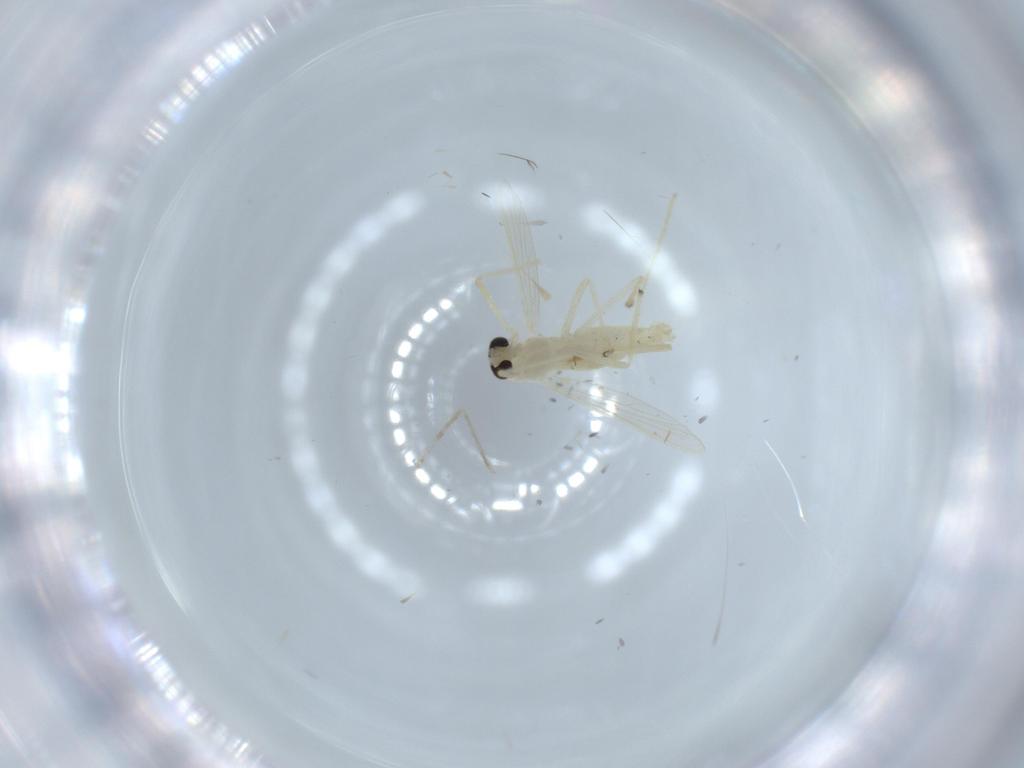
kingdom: Animalia
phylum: Arthropoda
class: Insecta
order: Diptera
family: Chironomidae
